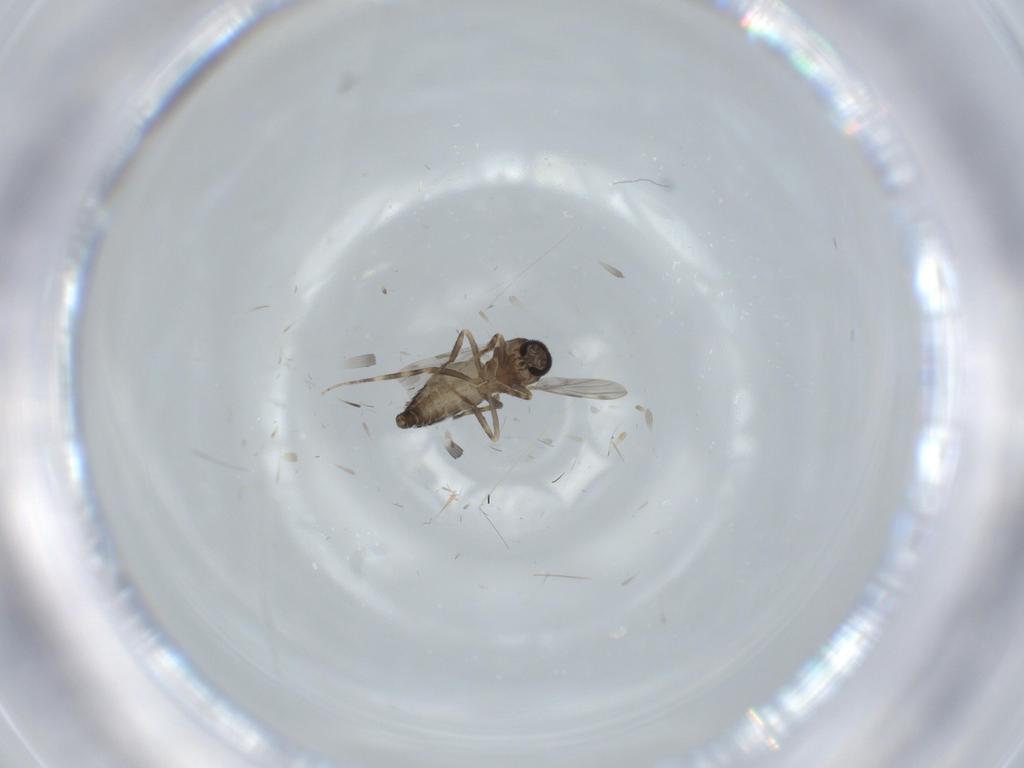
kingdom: Animalia
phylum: Arthropoda
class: Insecta
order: Diptera
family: Ceratopogonidae
